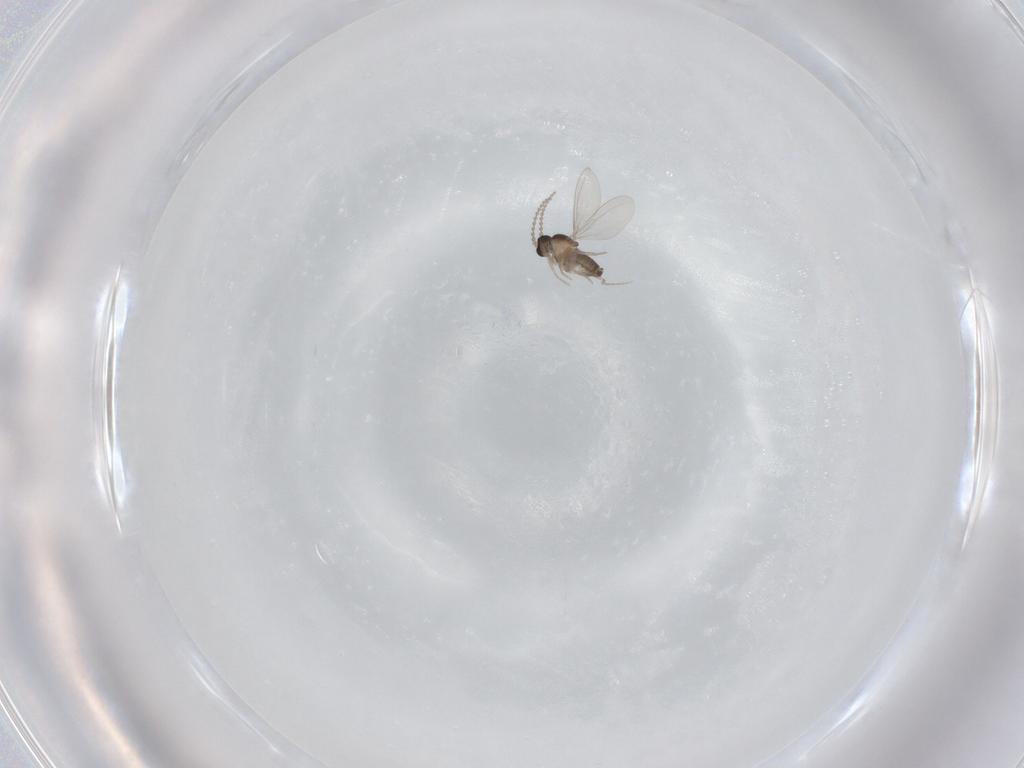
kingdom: Animalia
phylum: Arthropoda
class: Insecta
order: Diptera
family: Cecidomyiidae
